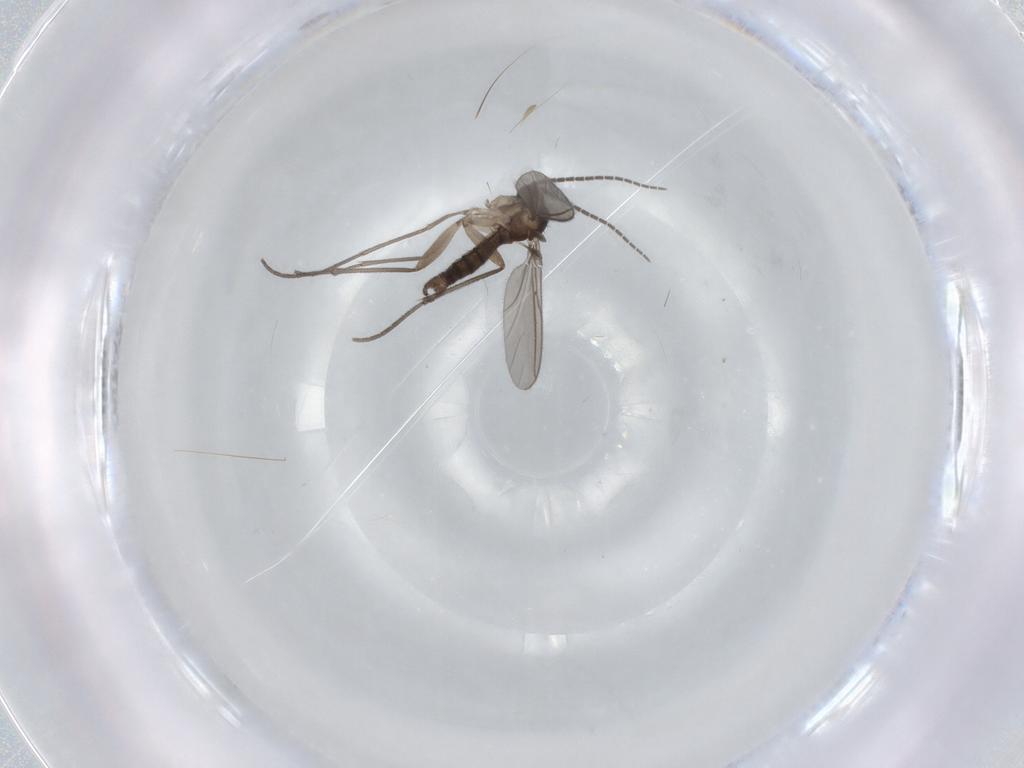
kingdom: Animalia
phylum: Arthropoda
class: Insecta
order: Diptera
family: Sciaridae
